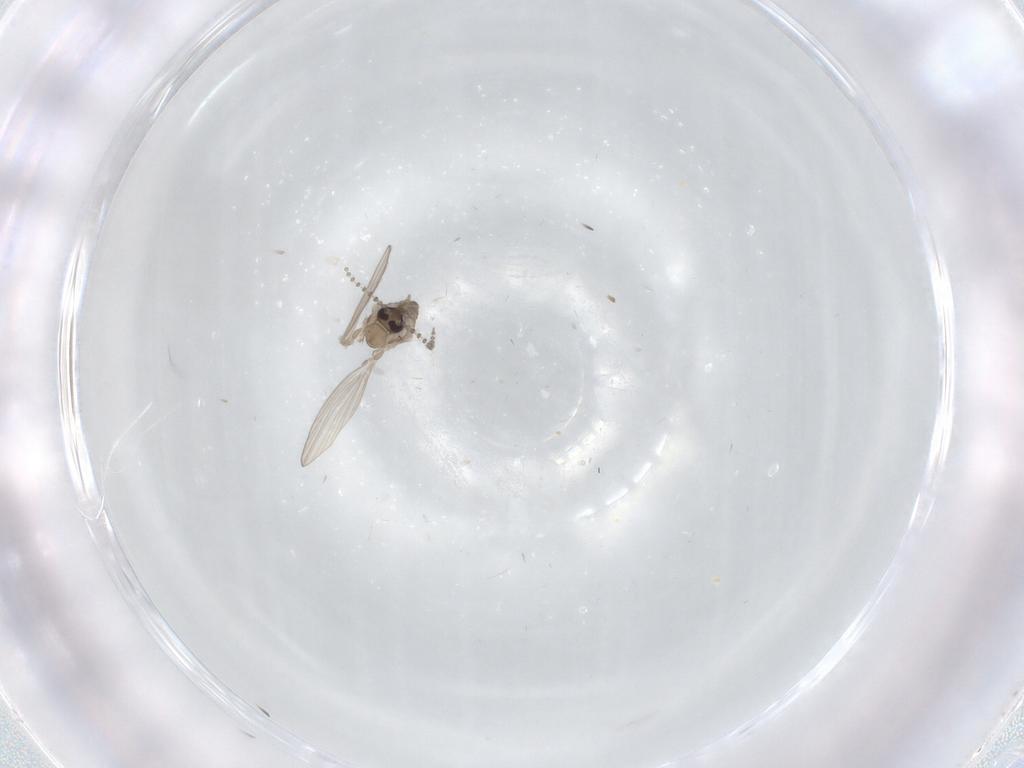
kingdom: Animalia
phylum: Arthropoda
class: Insecta
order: Diptera
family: Psychodidae
